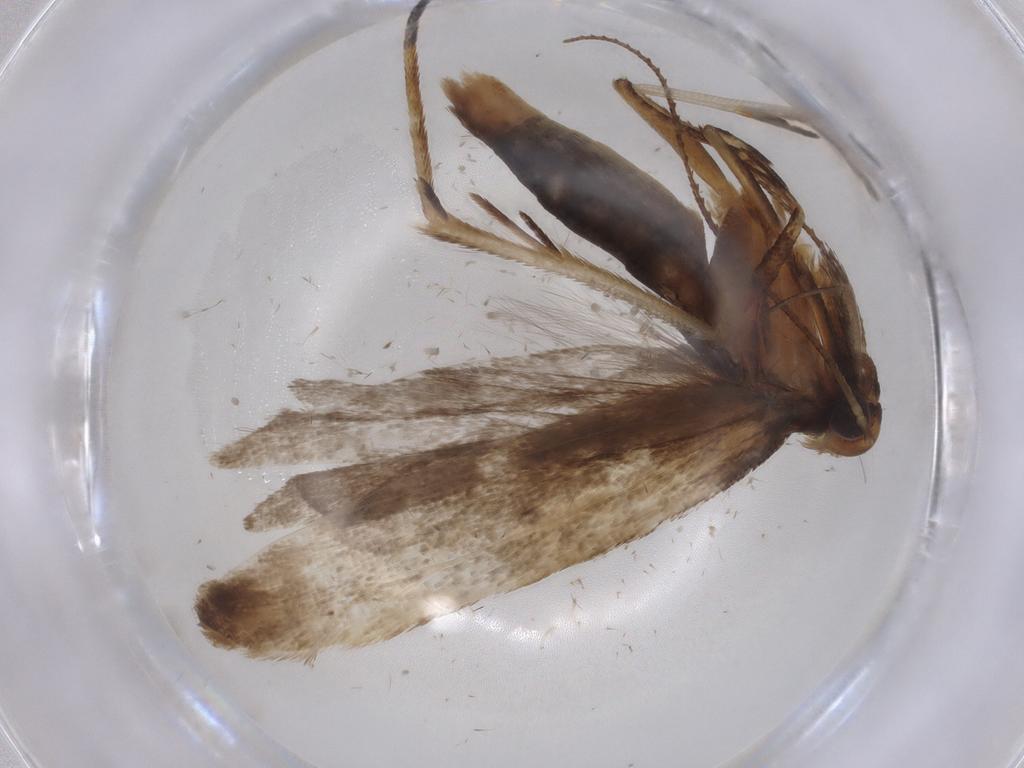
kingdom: Animalia
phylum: Arthropoda
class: Insecta
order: Lepidoptera
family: Gelechiidae
